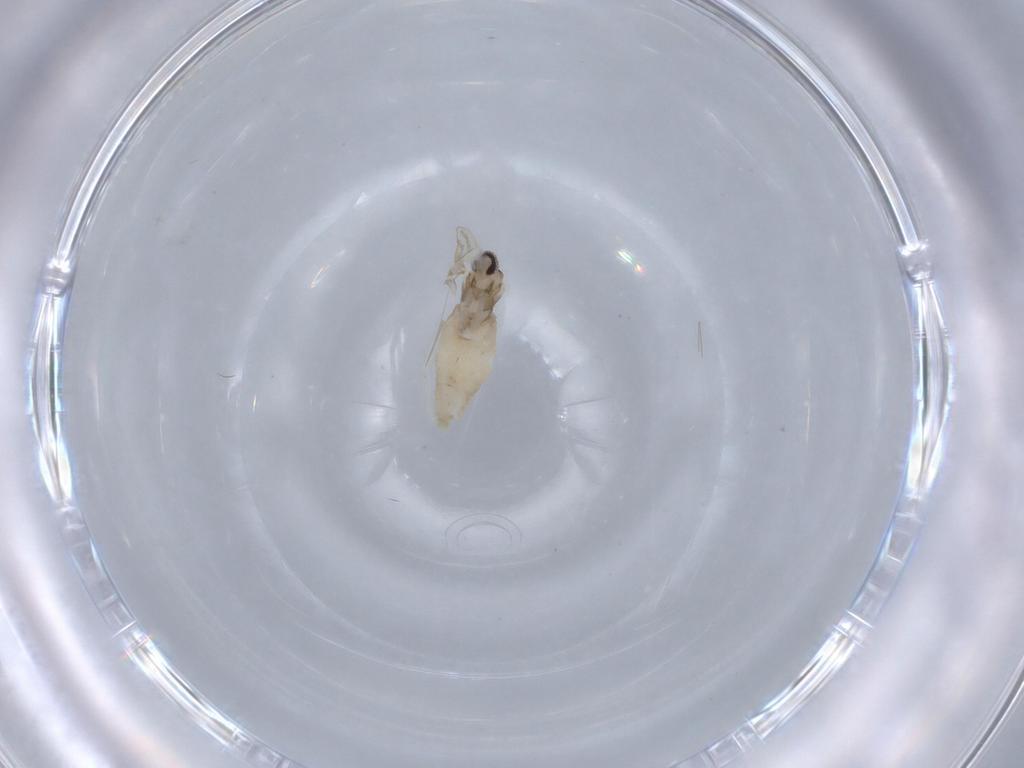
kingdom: Animalia
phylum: Arthropoda
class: Insecta
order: Diptera
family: Cecidomyiidae
